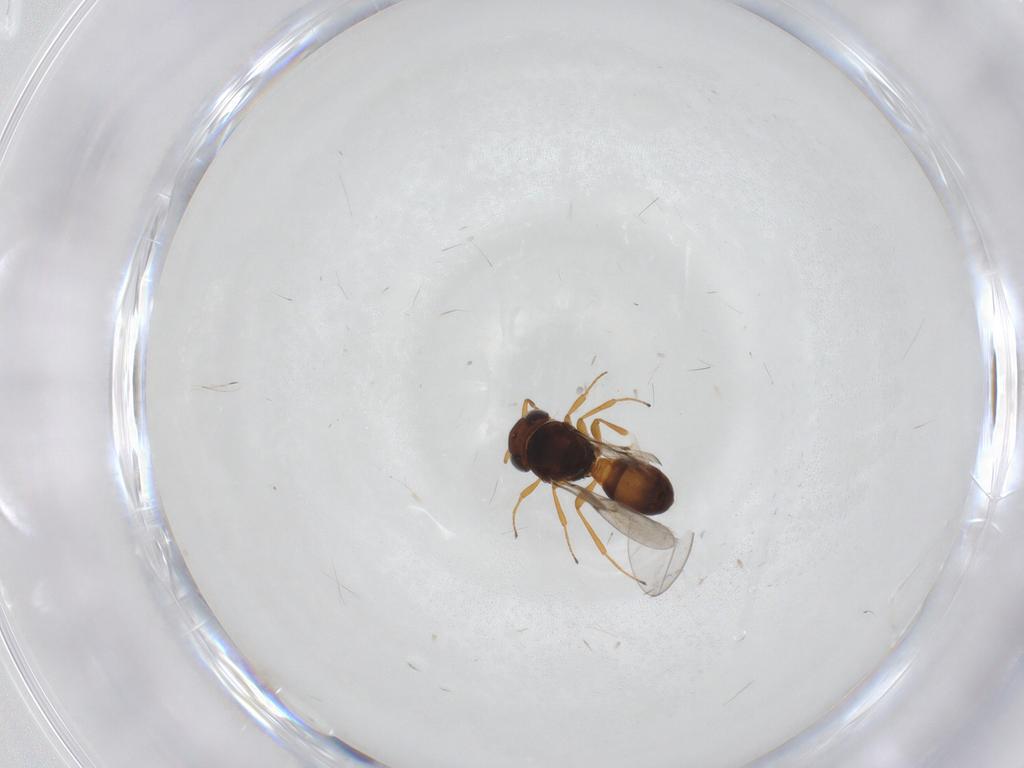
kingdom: Animalia
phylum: Arthropoda
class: Arachnida
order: Araneae
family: Pholcidae
